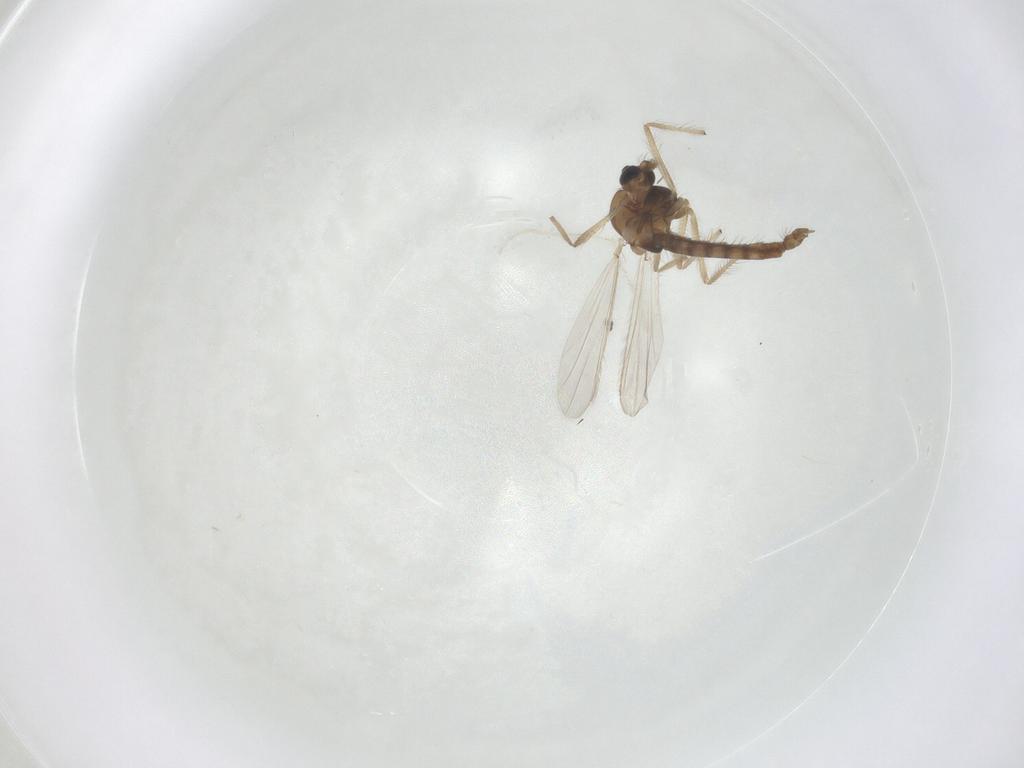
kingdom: Animalia
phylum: Arthropoda
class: Insecta
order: Diptera
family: Chironomidae
